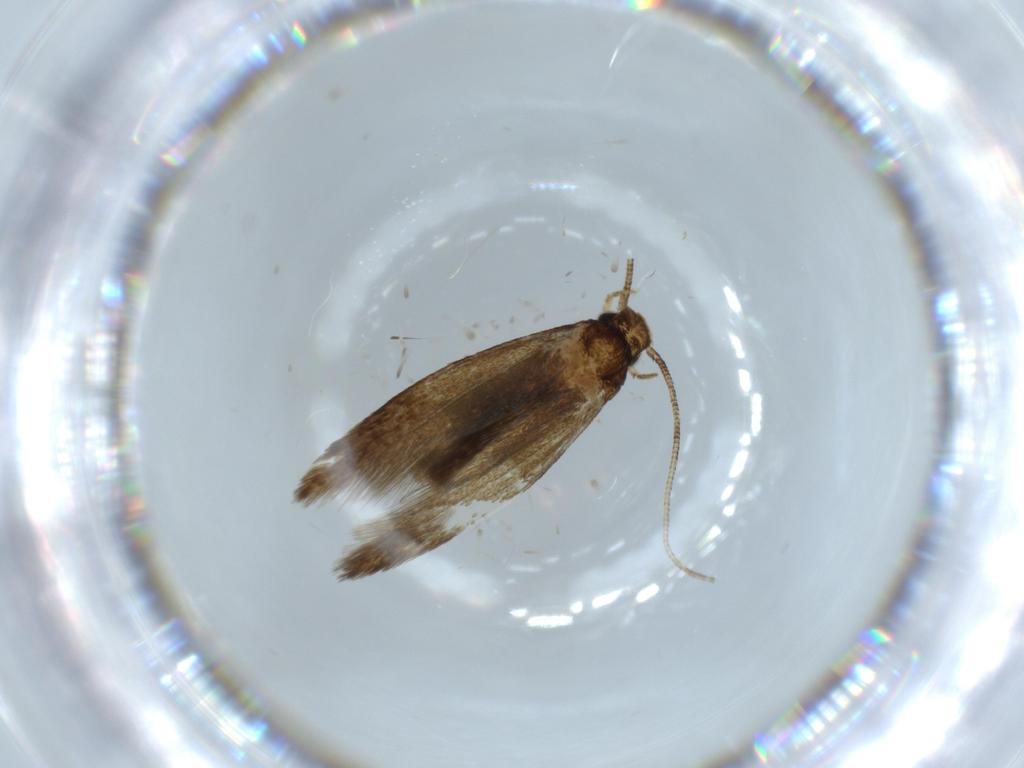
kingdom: Animalia
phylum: Arthropoda
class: Insecta
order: Lepidoptera
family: Tineidae
